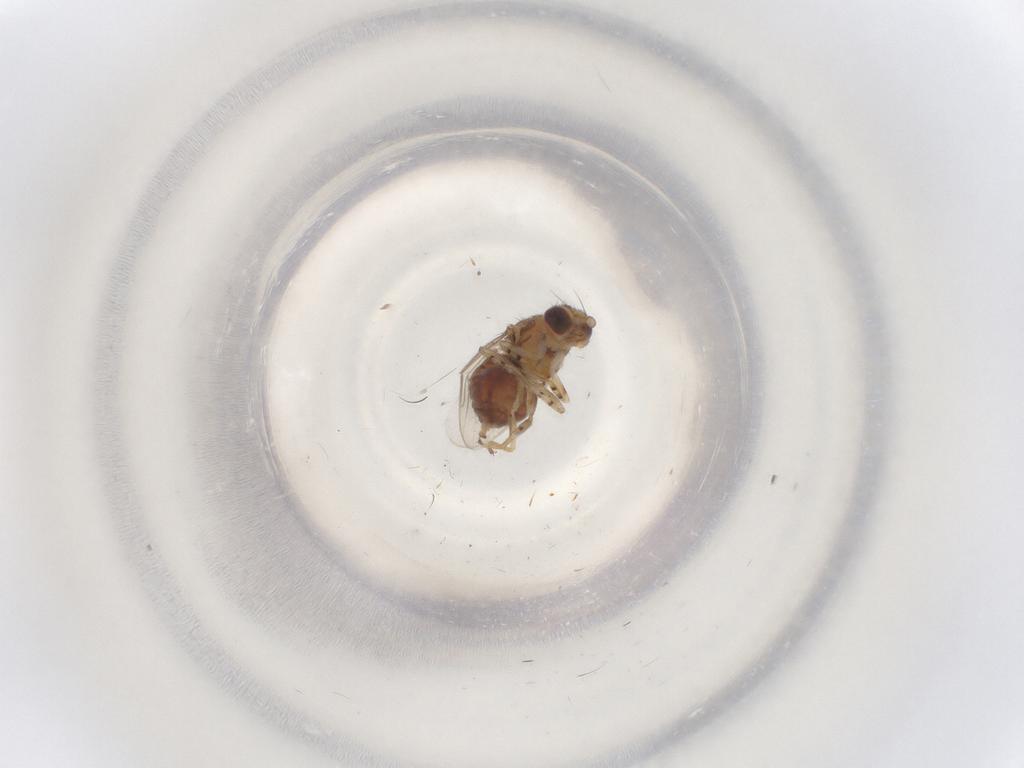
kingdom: Animalia
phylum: Arthropoda
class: Insecta
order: Diptera
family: Chloropidae
